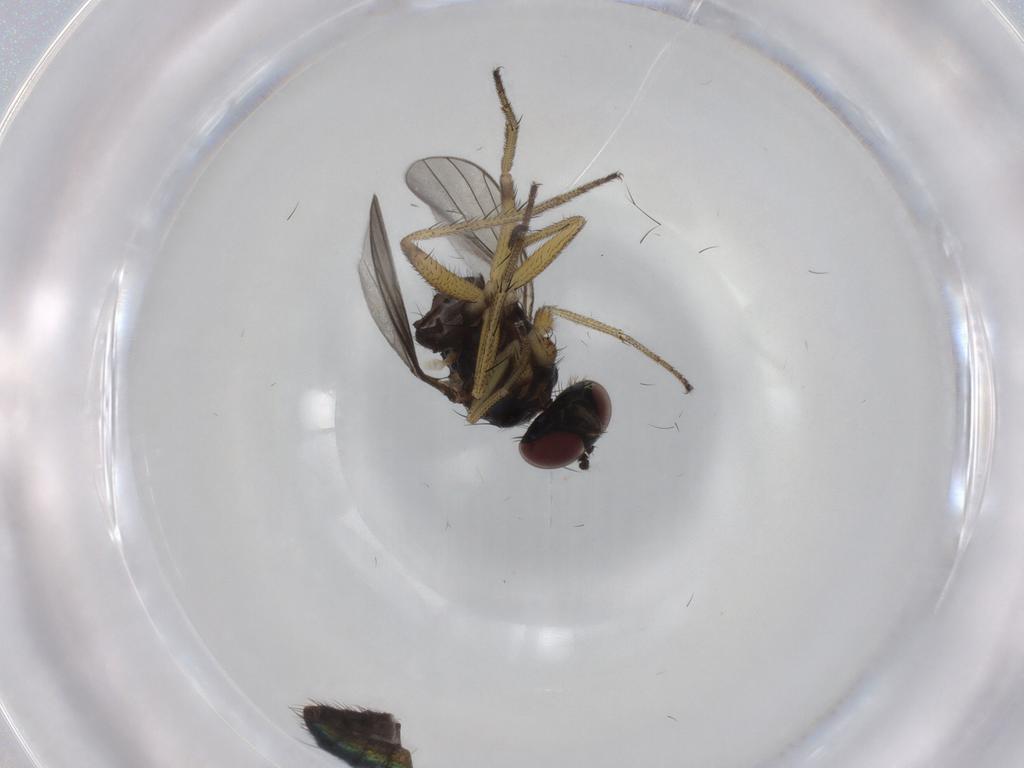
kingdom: Animalia
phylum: Arthropoda
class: Insecta
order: Diptera
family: Dolichopodidae
